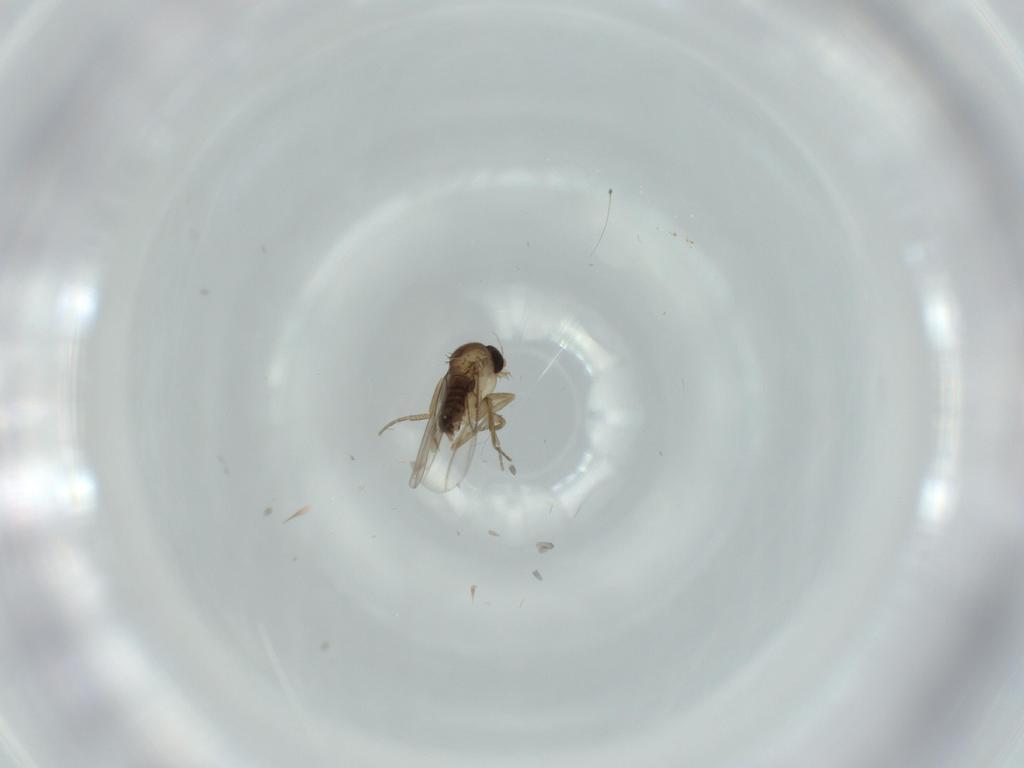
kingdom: Animalia
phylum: Arthropoda
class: Insecta
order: Diptera
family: Phoridae
